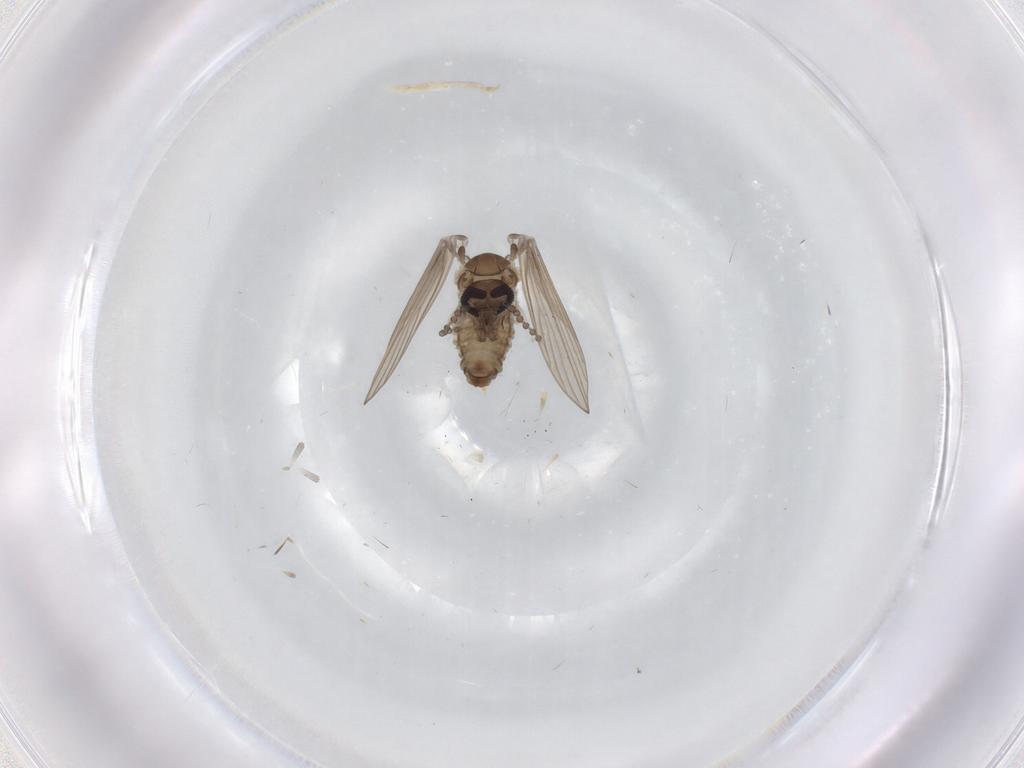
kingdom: Animalia
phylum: Arthropoda
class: Insecta
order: Diptera
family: Psychodidae
